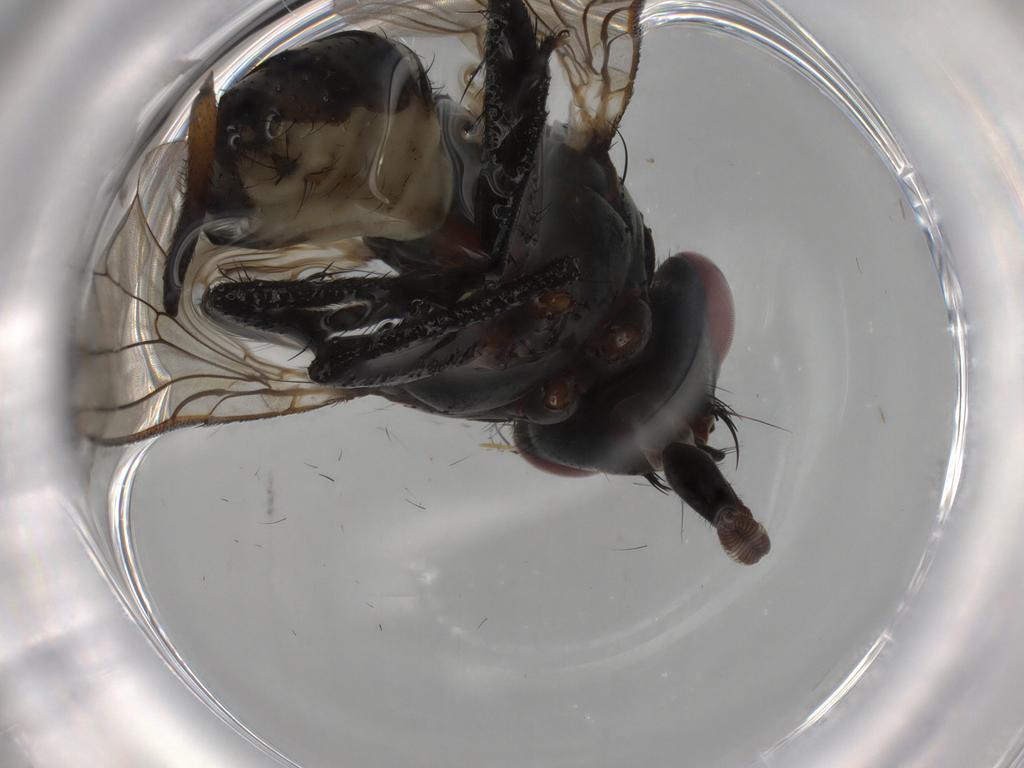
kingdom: Animalia
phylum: Arthropoda
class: Insecta
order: Diptera
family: Anthomyiidae
